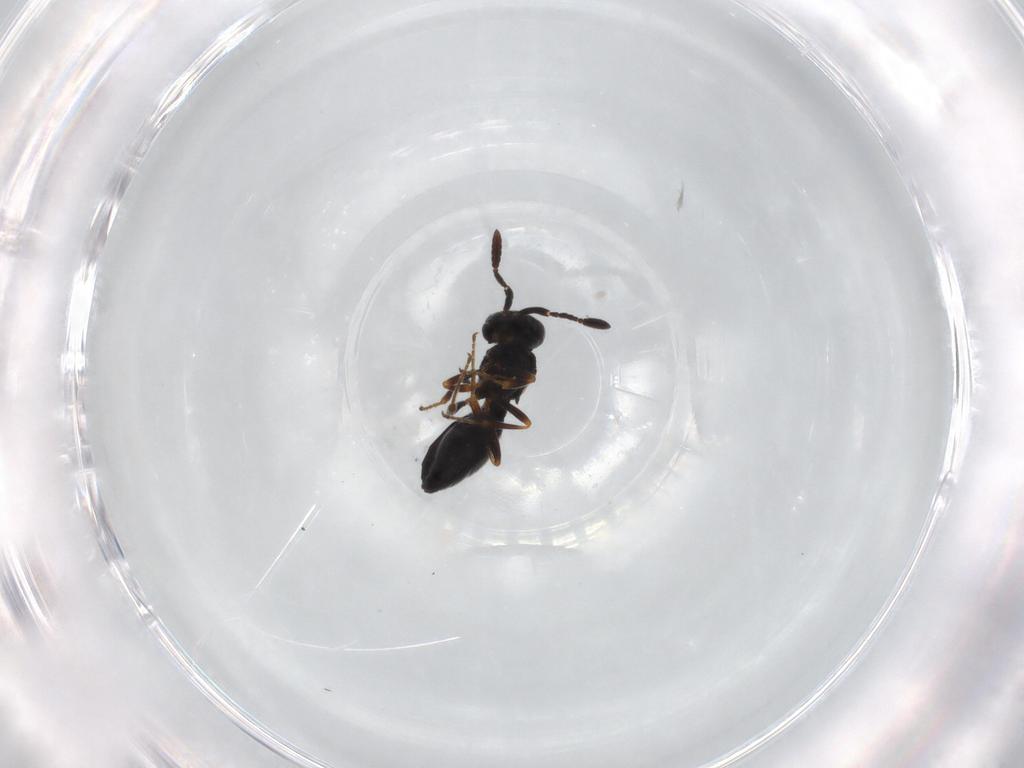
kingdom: Animalia
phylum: Arthropoda
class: Insecta
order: Hymenoptera
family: Scelionidae
